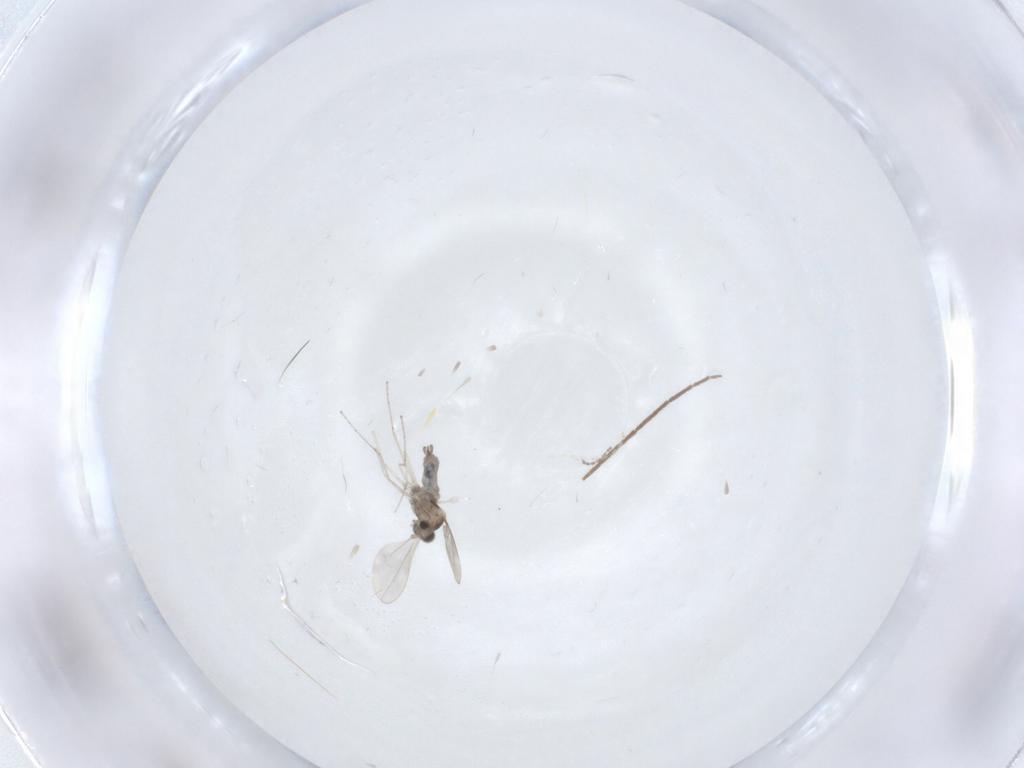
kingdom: Animalia
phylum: Arthropoda
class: Insecta
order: Diptera
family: Cecidomyiidae
